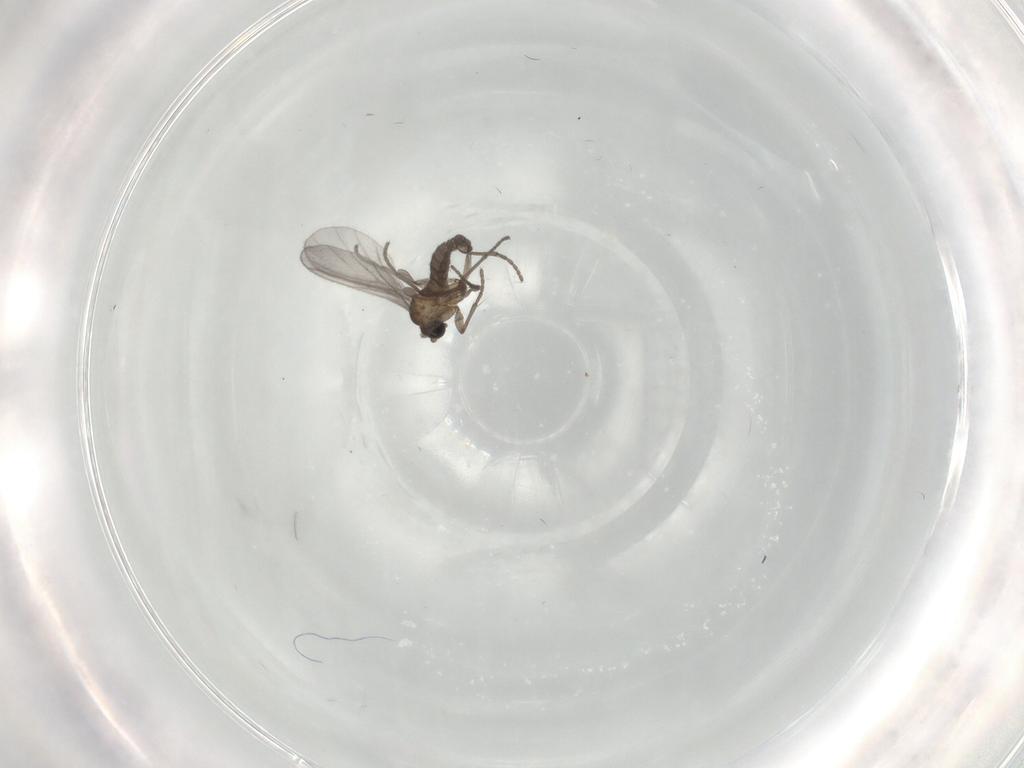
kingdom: Animalia
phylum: Arthropoda
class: Insecta
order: Diptera
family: Sciaridae
